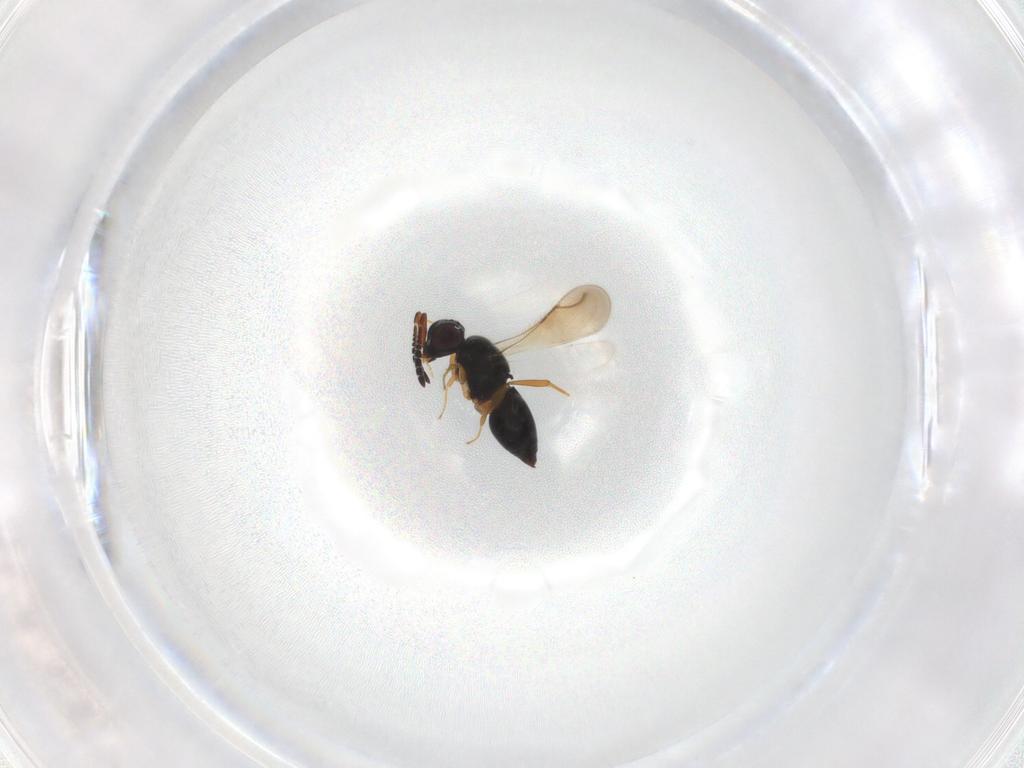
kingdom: Animalia
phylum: Arthropoda
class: Insecta
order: Hymenoptera
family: Ceraphronidae
